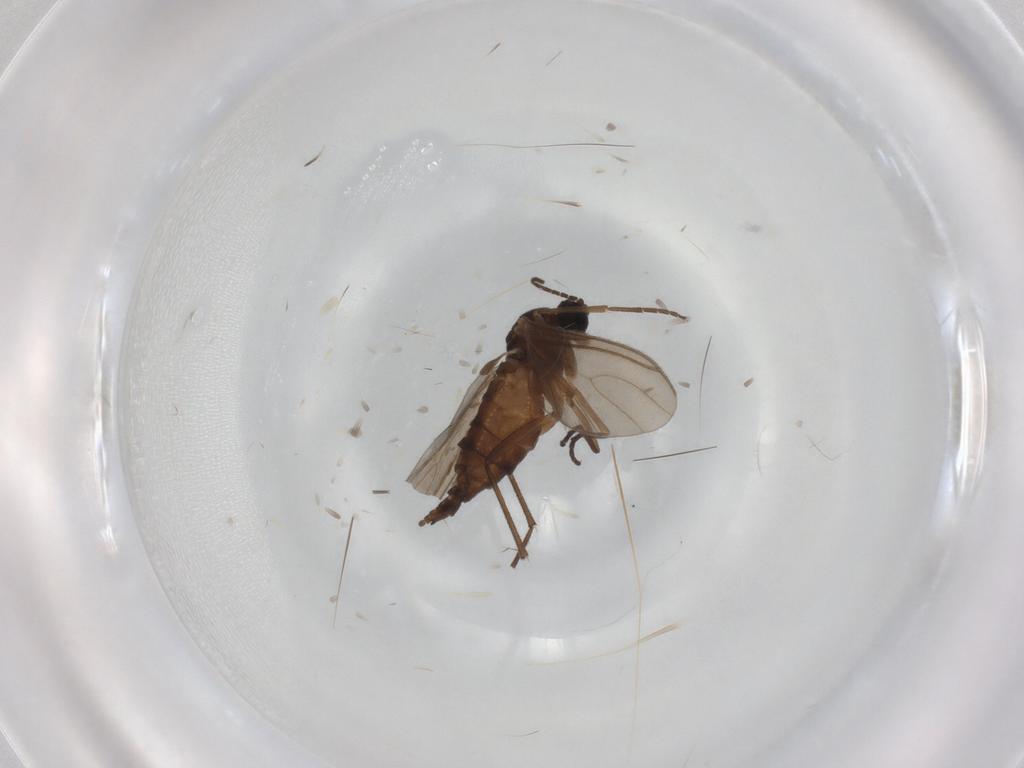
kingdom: Animalia
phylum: Arthropoda
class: Insecta
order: Diptera
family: Sciaridae
